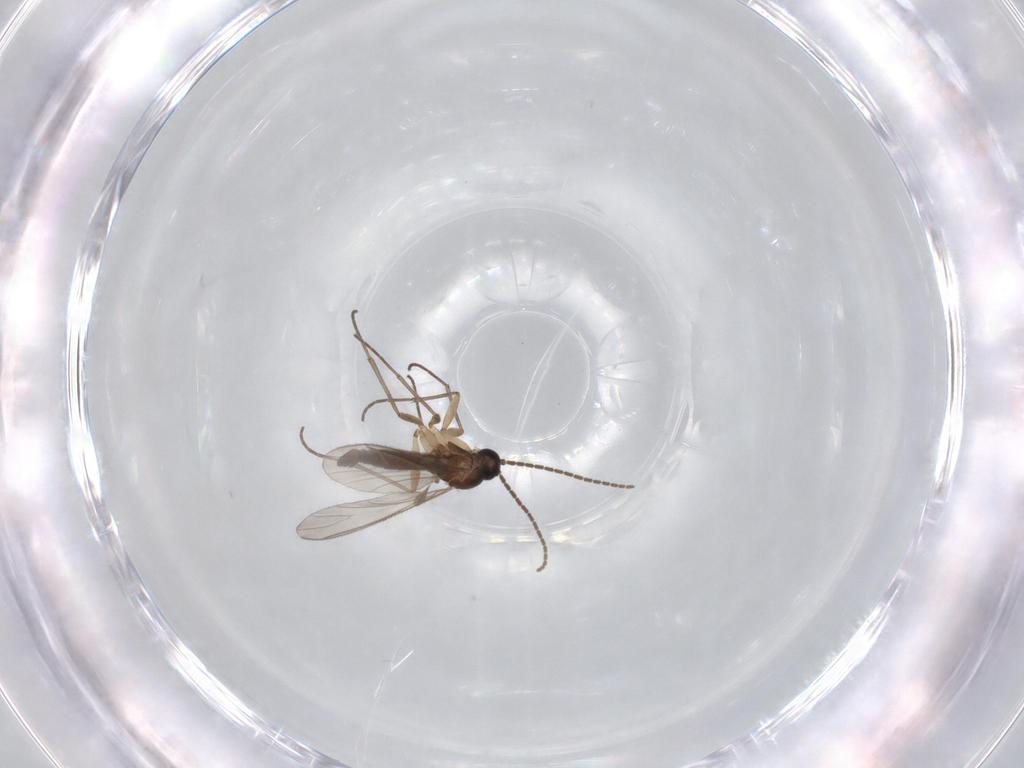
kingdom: Animalia
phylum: Arthropoda
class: Insecta
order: Diptera
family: Sciaridae
